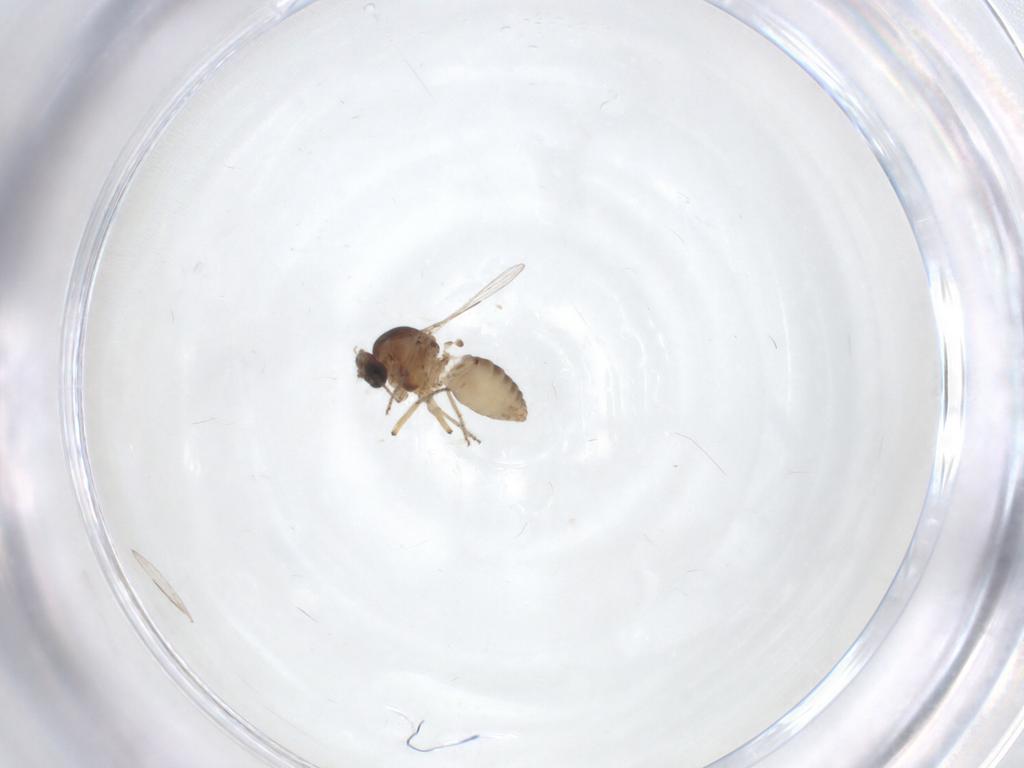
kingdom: Animalia
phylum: Arthropoda
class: Insecta
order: Diptera
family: Ceratopogonidae
